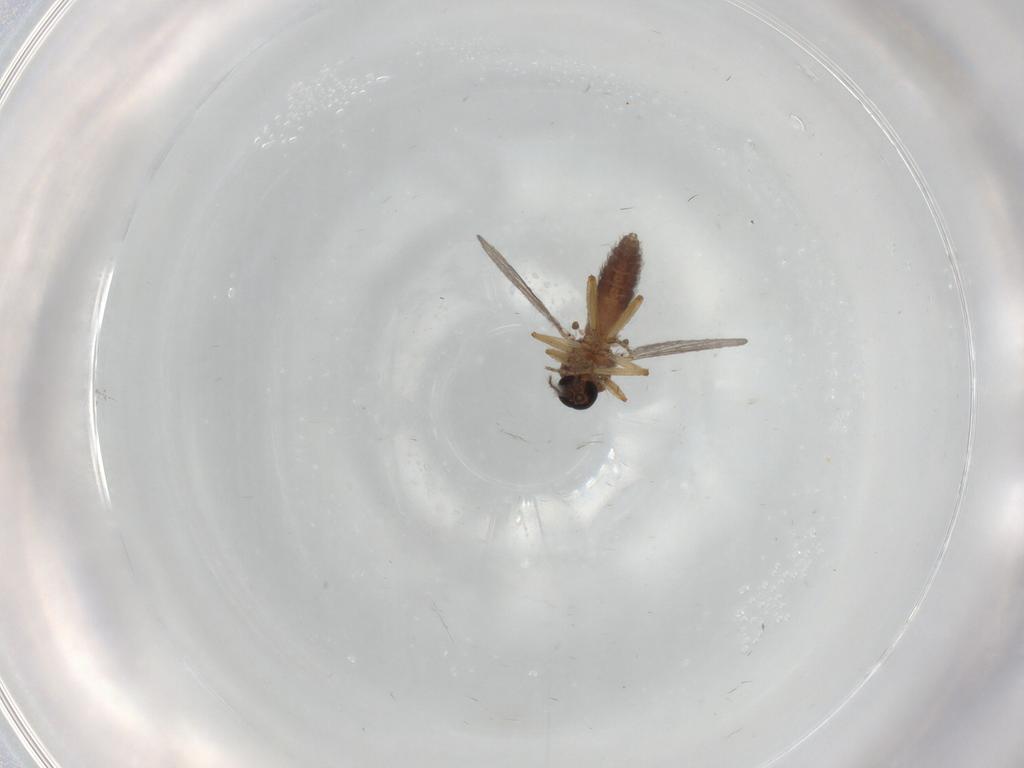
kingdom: Animalia
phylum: Arthropoda
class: Insecta
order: Diptera
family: Ceratopogonidae
